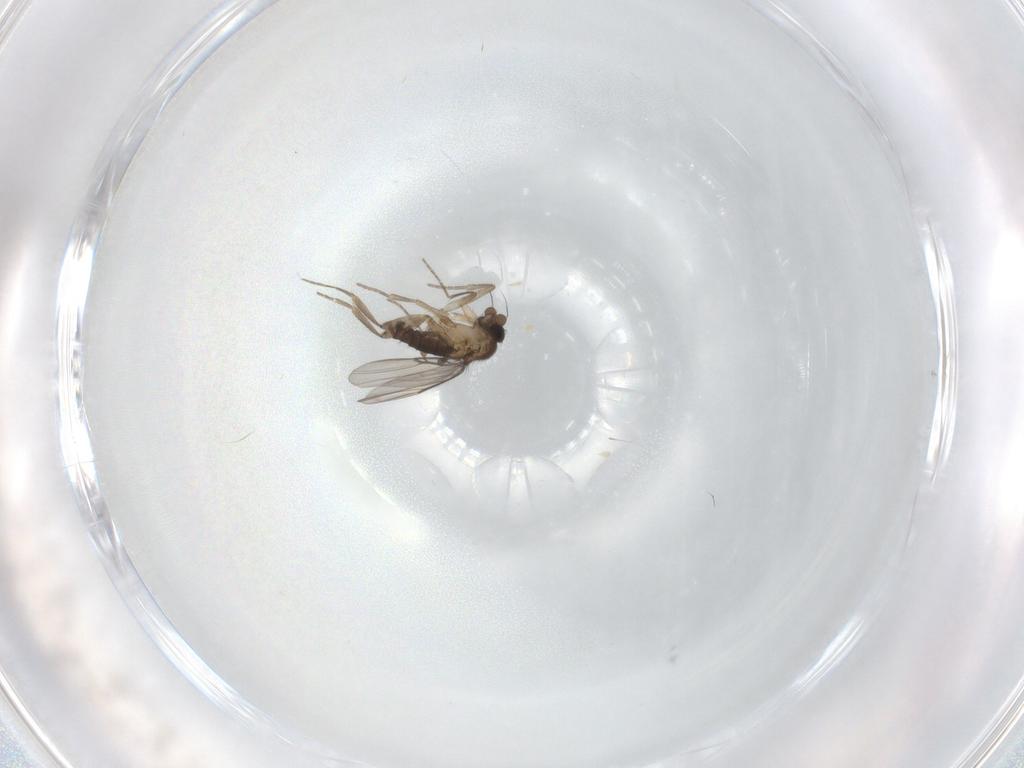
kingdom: Animalia
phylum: Arthropoda
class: Insecta
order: Diptera
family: Phoridae
